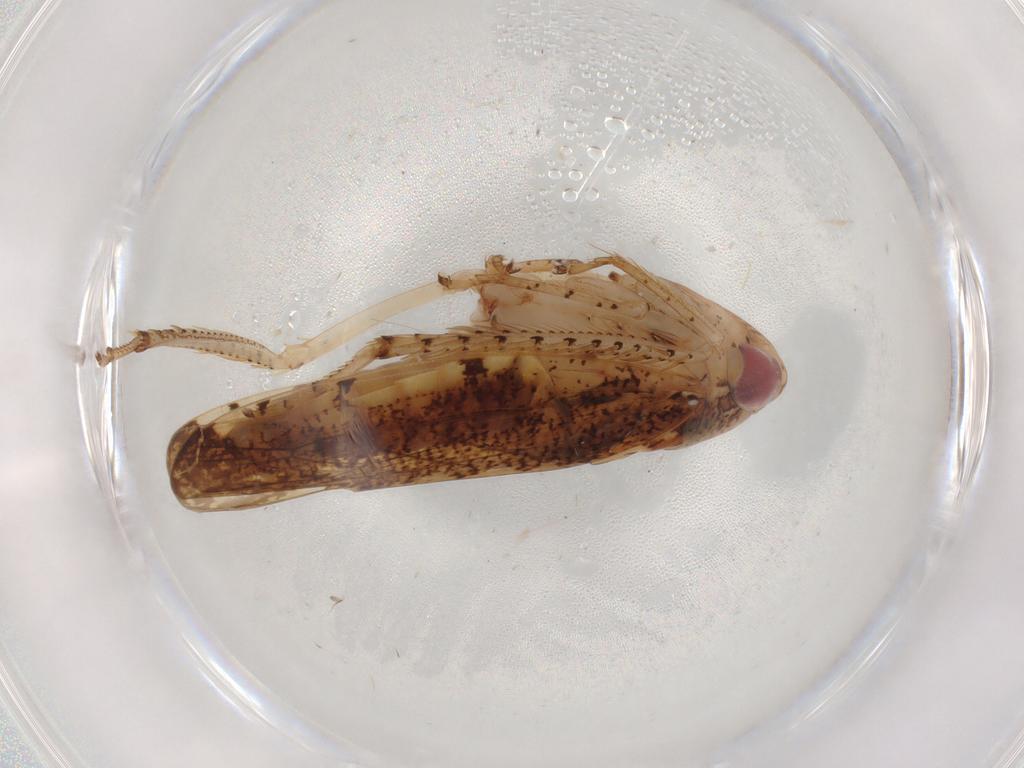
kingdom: Animalia
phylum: Arthropoda
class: Insecta
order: Hemiptera
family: Cicadellidae
